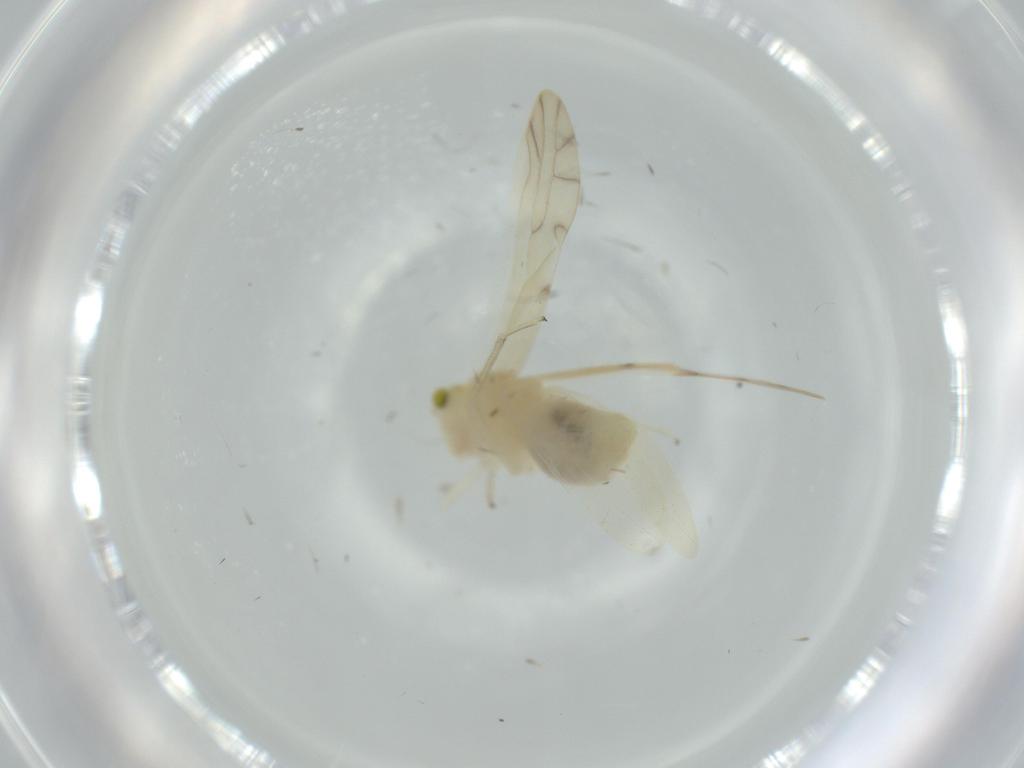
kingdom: Animalia
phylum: Arthropoda
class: Insecta
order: Psocodea
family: Caeciliusidae
